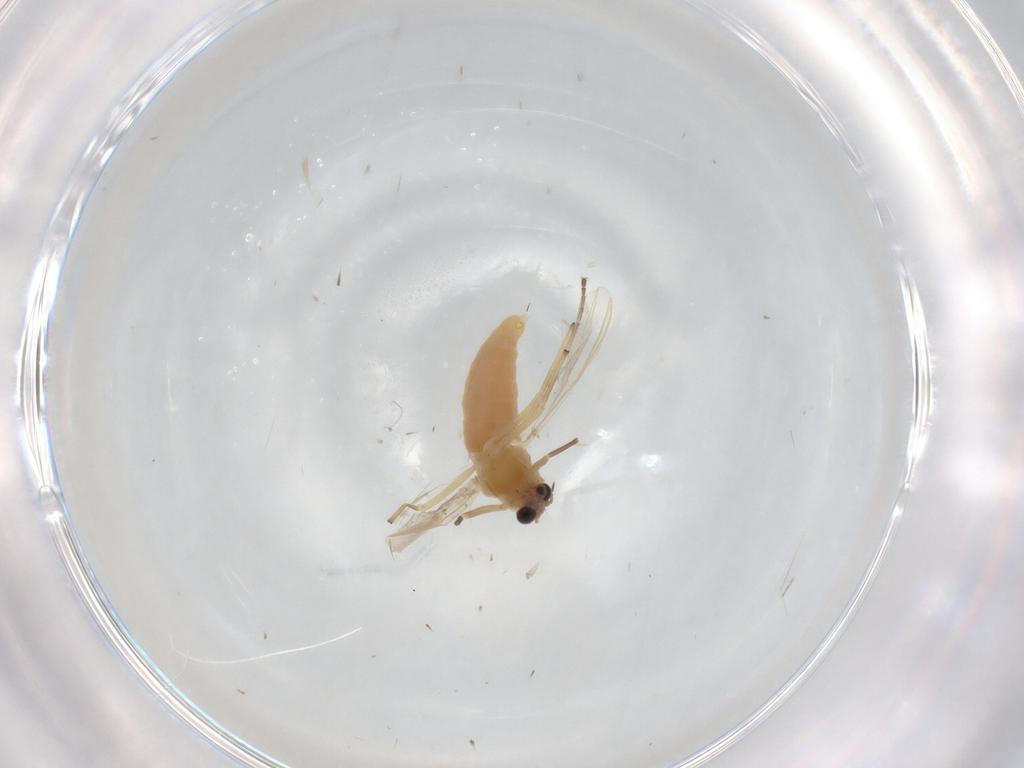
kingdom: Animalia
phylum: Arthropoda
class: Insecta
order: Diptera
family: Chironomidae
